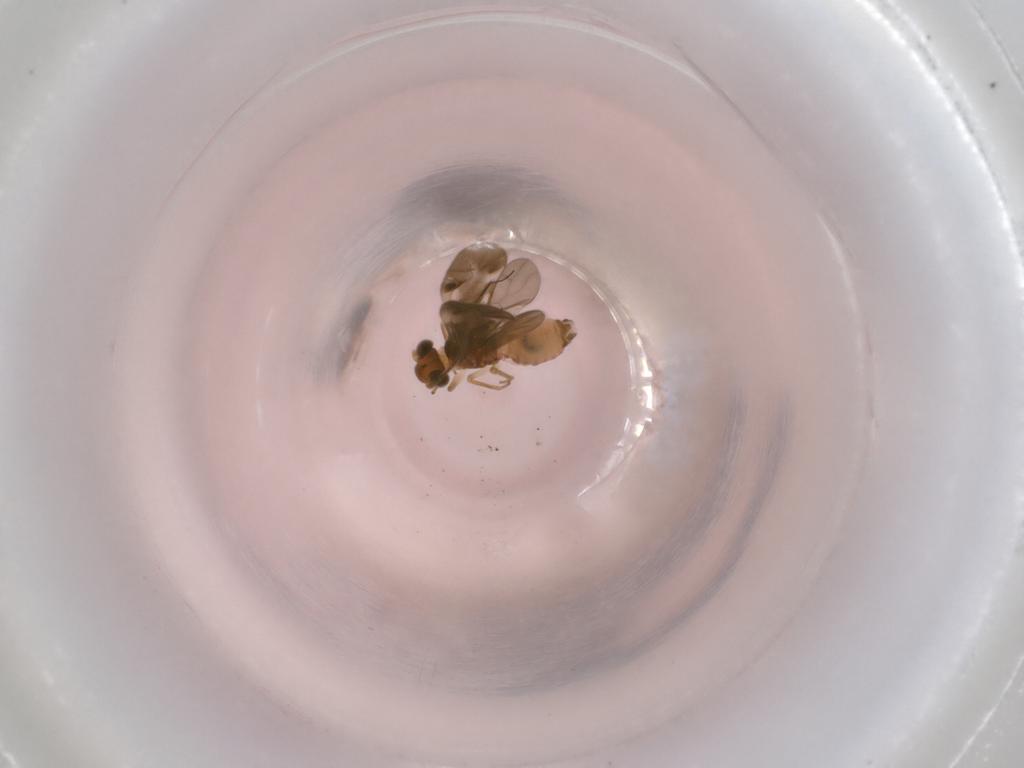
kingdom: Animalia
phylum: Arthropoda
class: Insecta
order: Psocodea
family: Caeciliusidae
